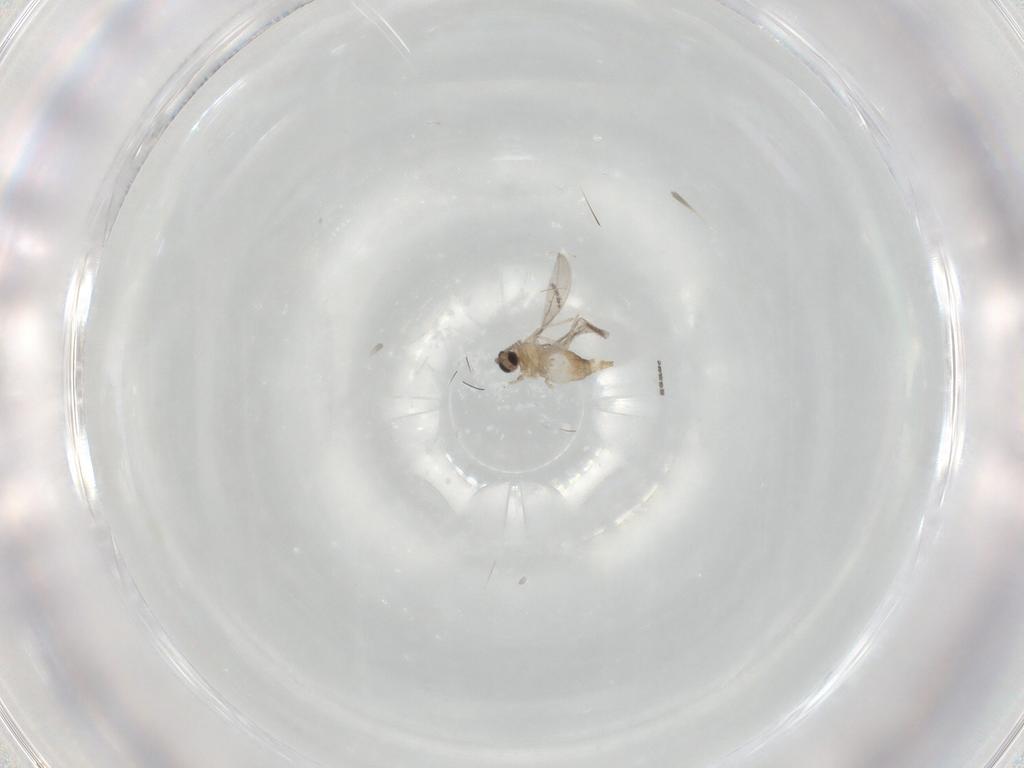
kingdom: Animalia
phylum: Arthropoda
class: Insecta
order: Diptera
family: Cecidomyiidae
